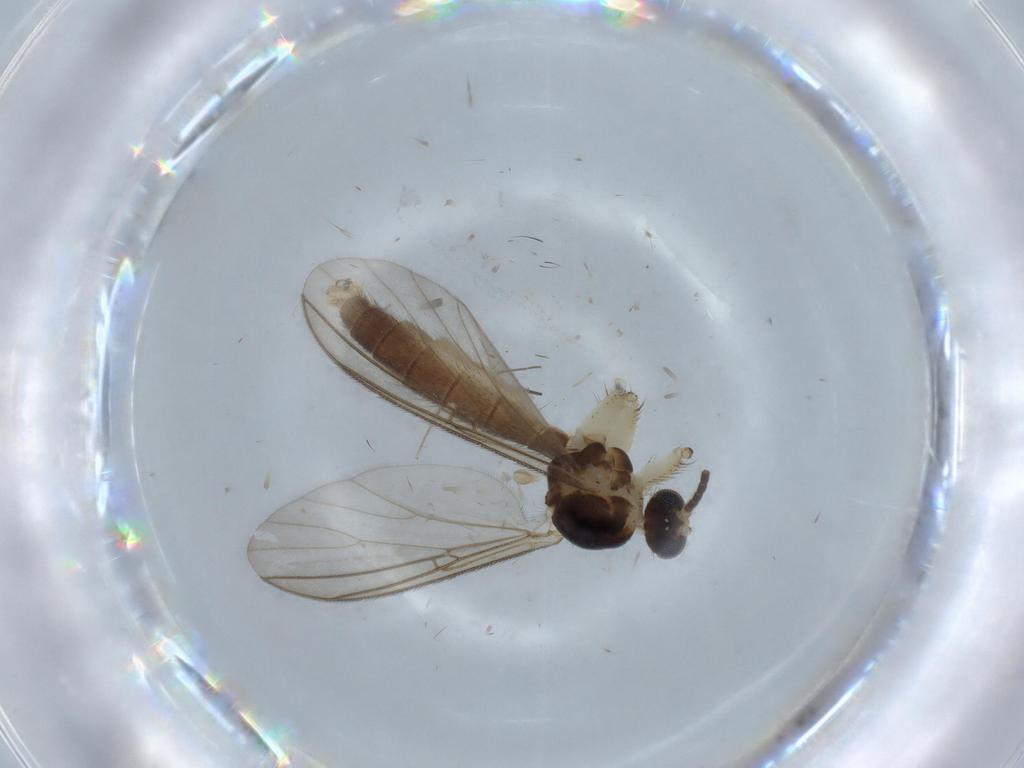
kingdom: Animalia
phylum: Arthropoda
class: Insecta
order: Diptera
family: Mycetophilidae
